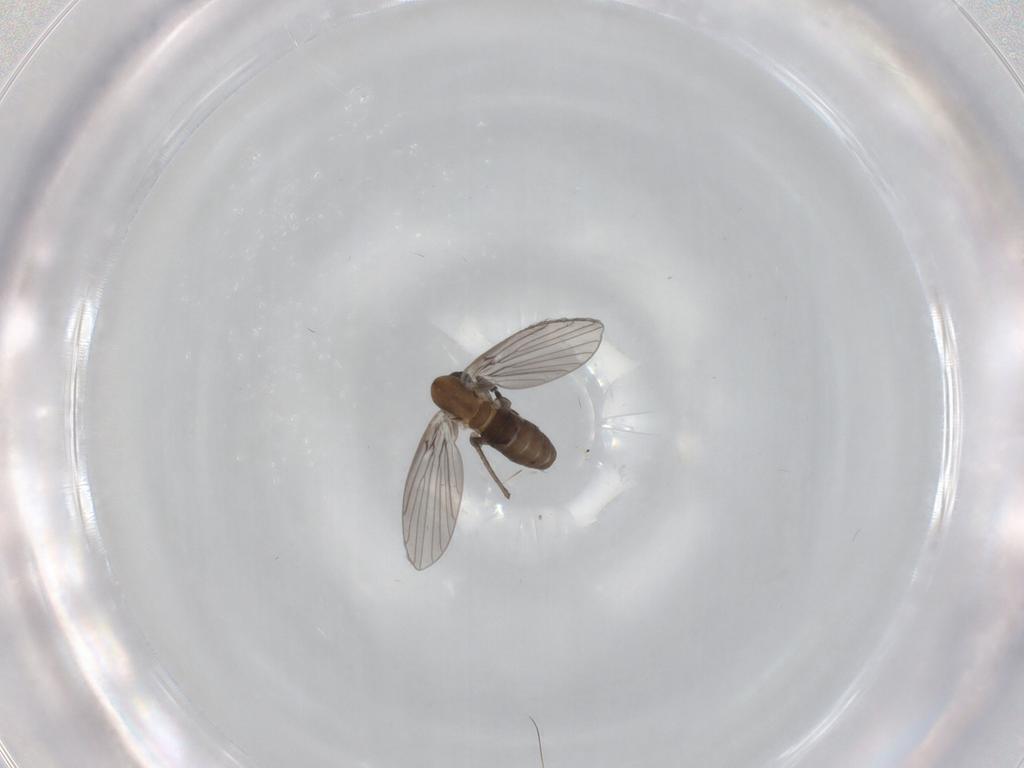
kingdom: Animalia
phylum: Arthropoda
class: Insecta
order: Diptera
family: Psychodidae
